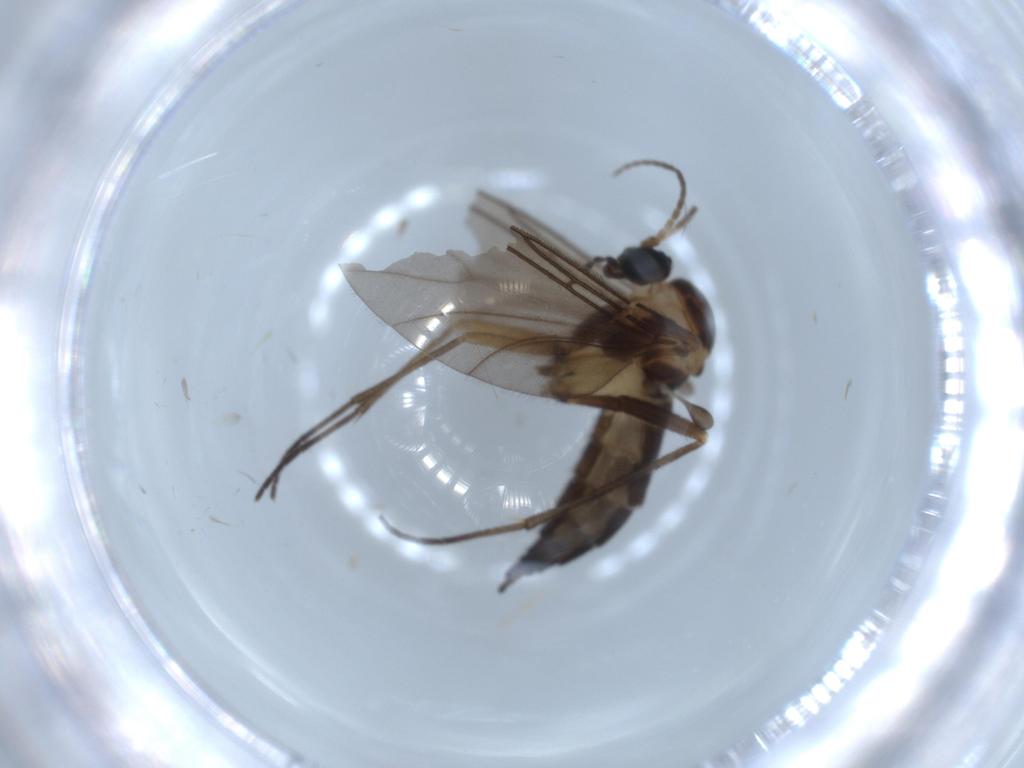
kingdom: Animalia
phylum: Arthropoda
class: Insecta
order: Diptera
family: Sciaridae
